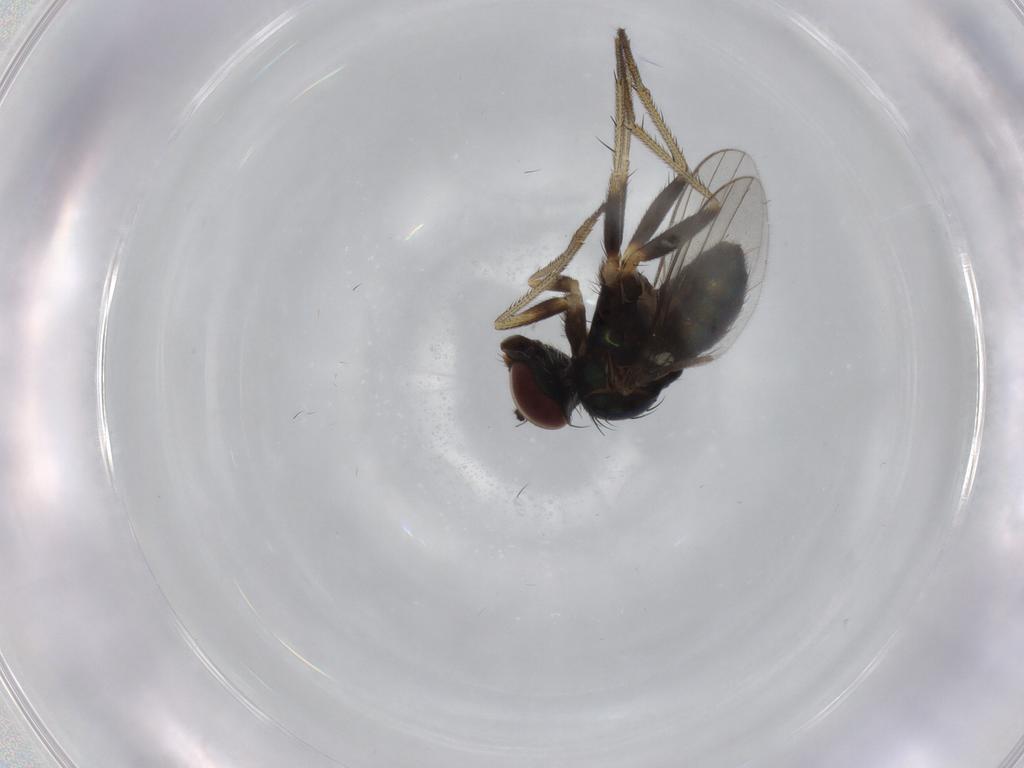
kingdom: Animalia
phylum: Arthropoda
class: Insecta
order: Diptera
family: Dolichopodidae
